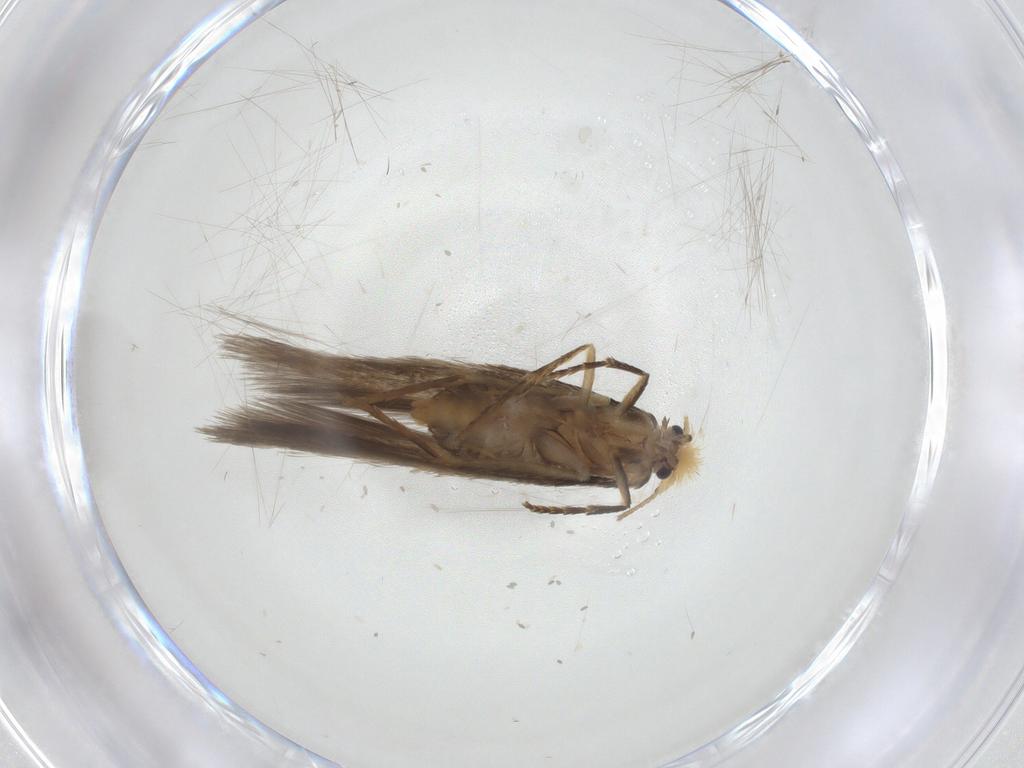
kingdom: Animalia
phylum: Arthropoda
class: Insecta
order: Lepidoptera
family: Nepticulidae
